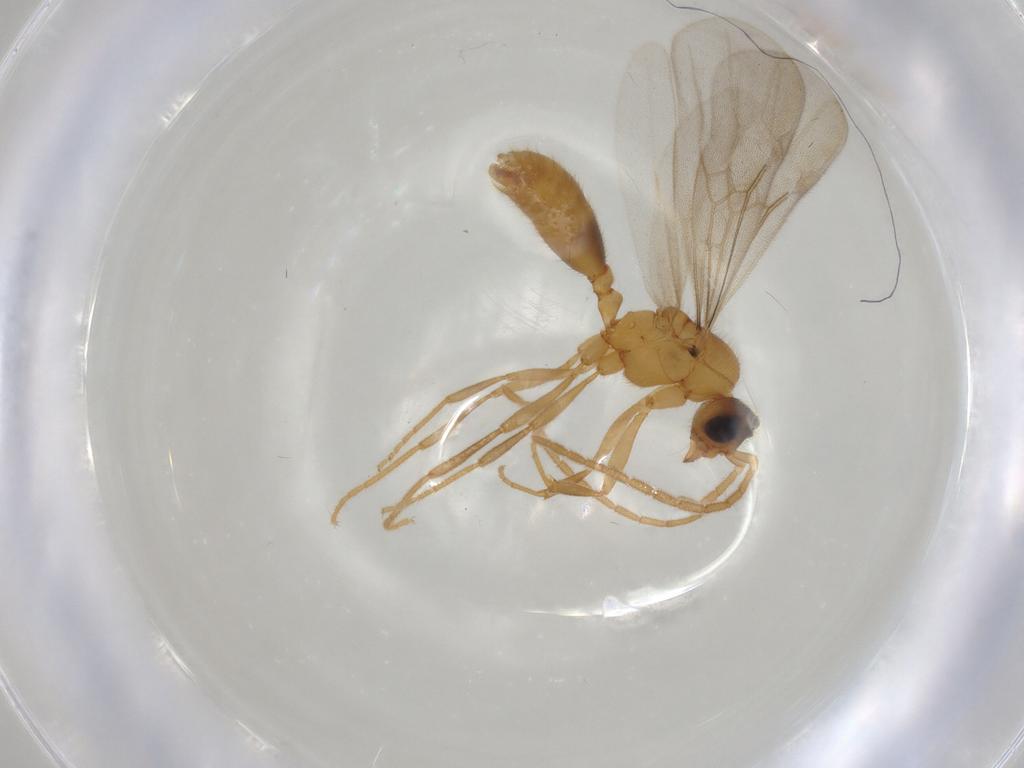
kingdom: Animalia
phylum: Arthropoda
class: Insecta
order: Hymenoptera
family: Formicidae
